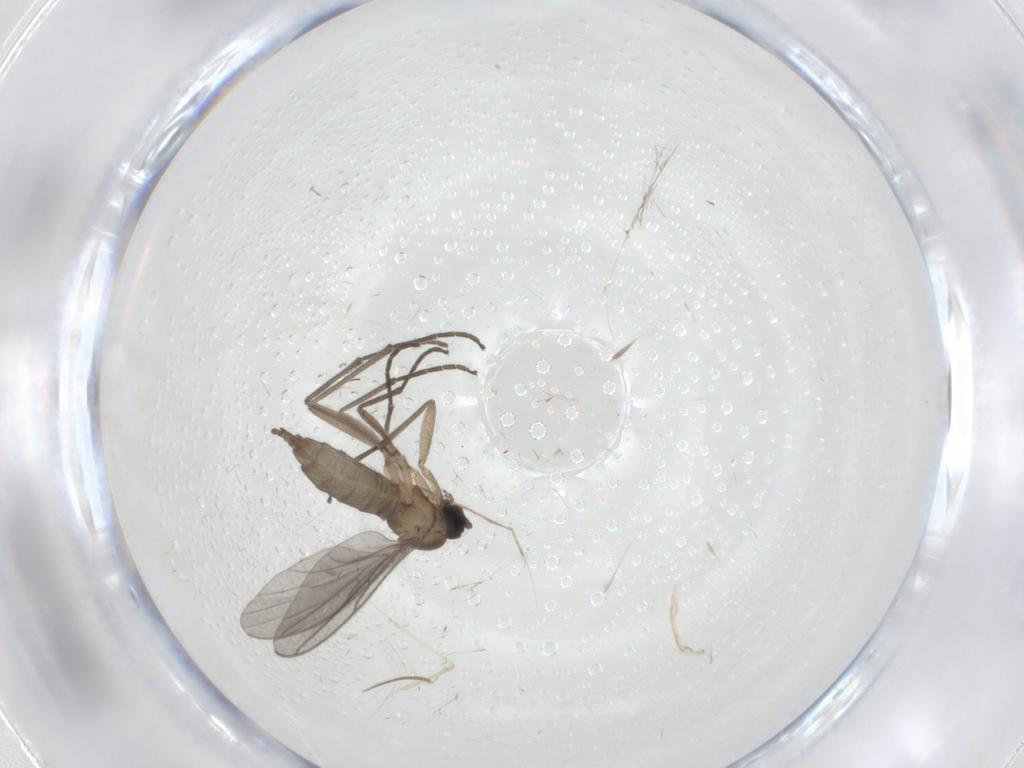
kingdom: Animalia
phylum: Arthropoda
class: Insecta
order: Diptera
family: Sciaridae
